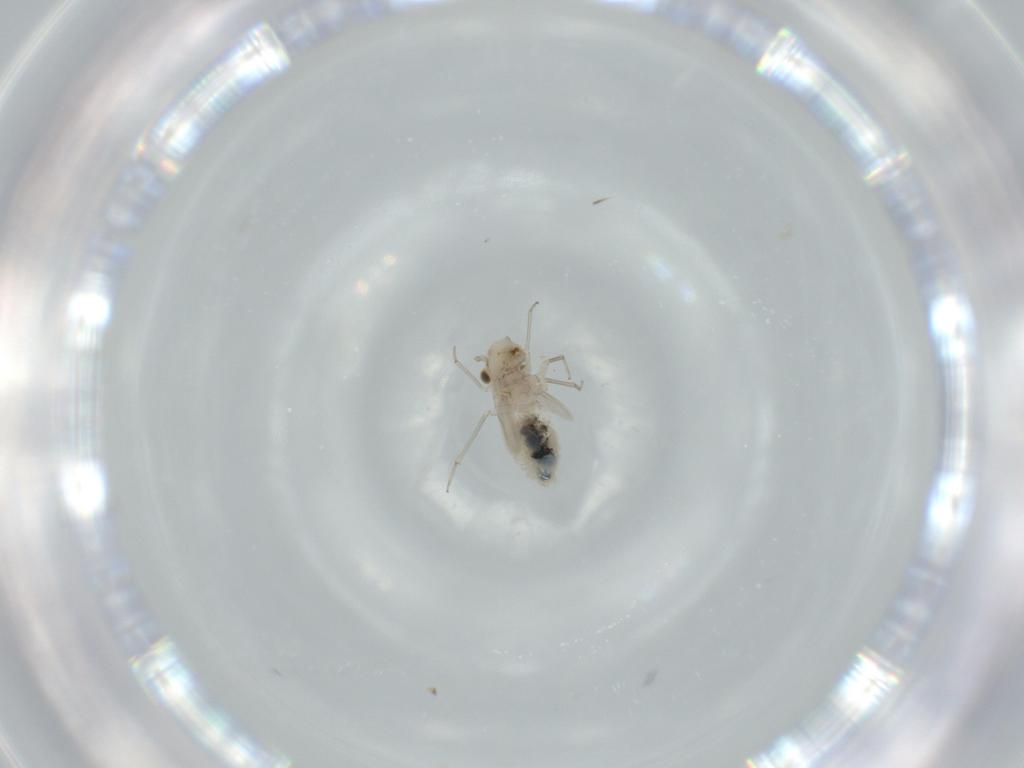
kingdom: Animalia
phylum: Arthropoda
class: Insecta
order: Psocodea
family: Lachesillidae
